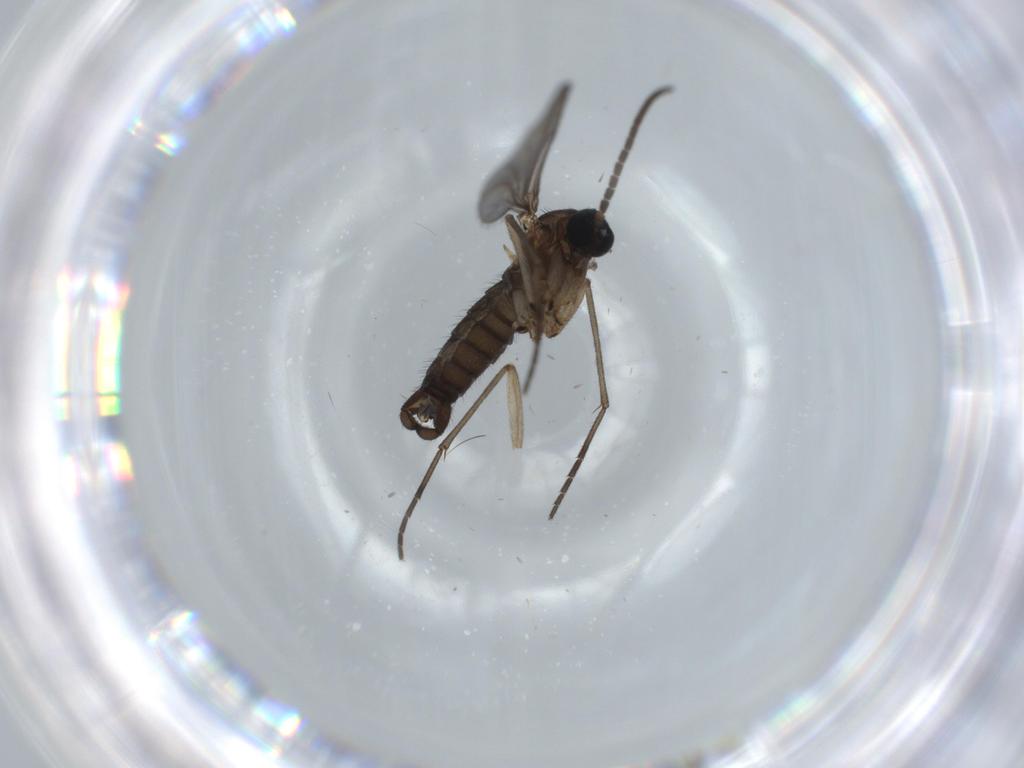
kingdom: Animalia
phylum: Arthropoda
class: Insecta
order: Diptera
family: Sciaridae
